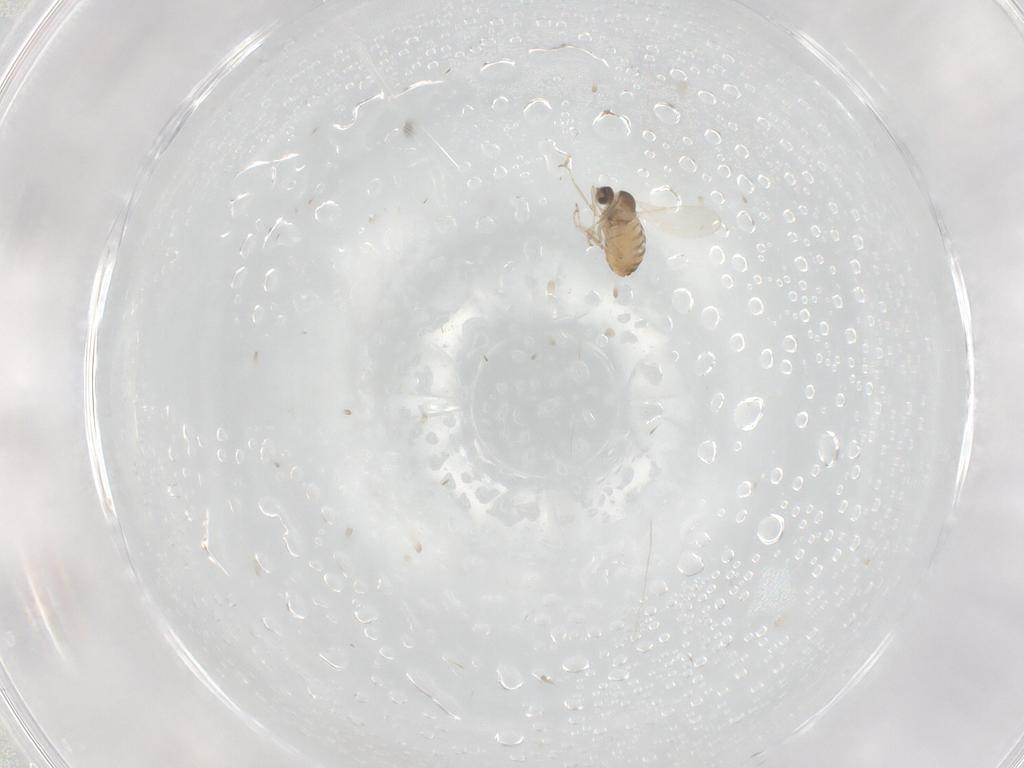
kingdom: Animalia
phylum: Arthropoda
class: Insecta
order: Diptera
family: Cecidomyiidae
